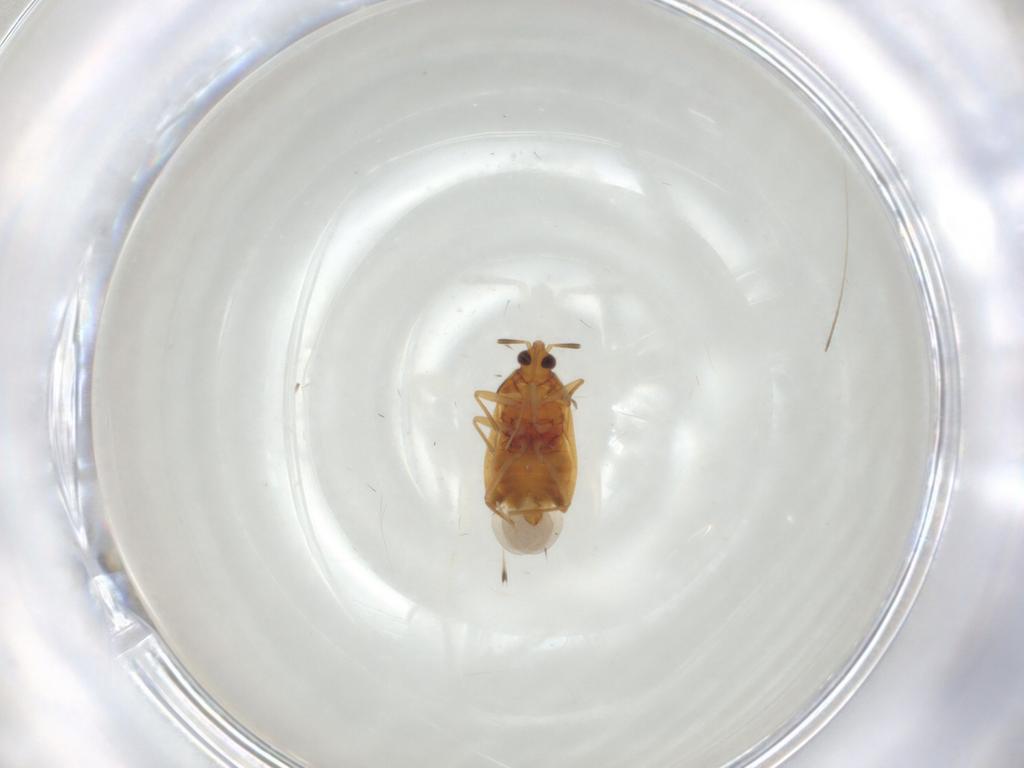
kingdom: Animalia
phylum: Arthropoda
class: Insecta
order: Hemiptera
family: Miridae
